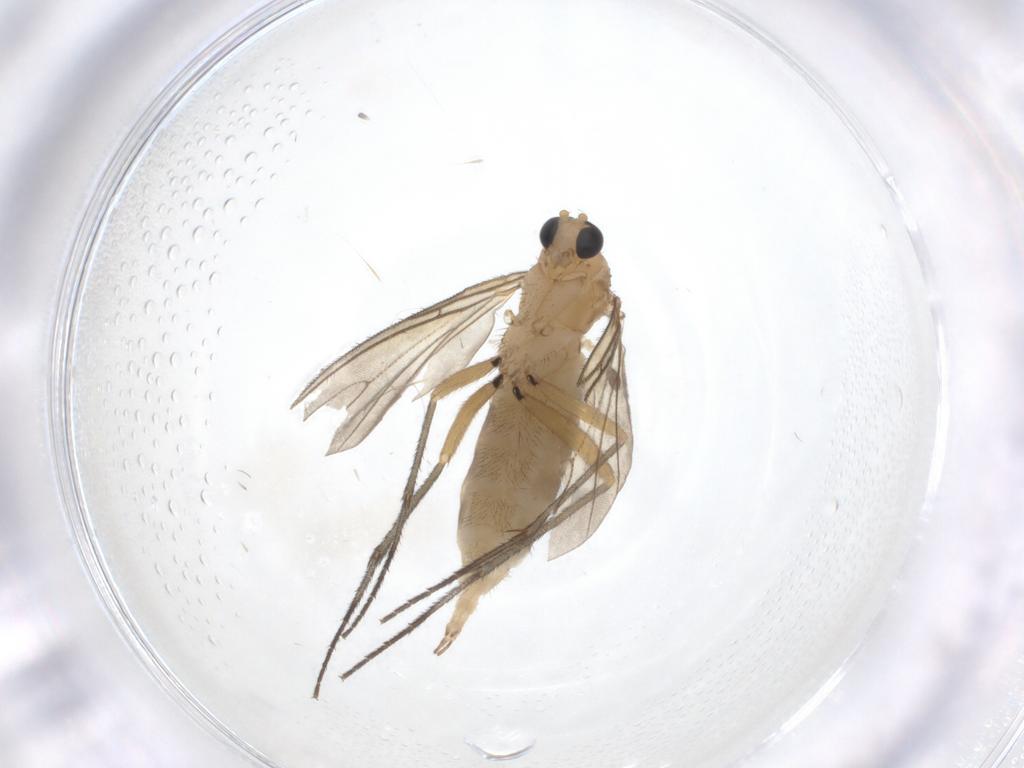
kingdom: Animalia
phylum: Arthropoda
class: Insecta
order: Diptera
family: Sciaridae
